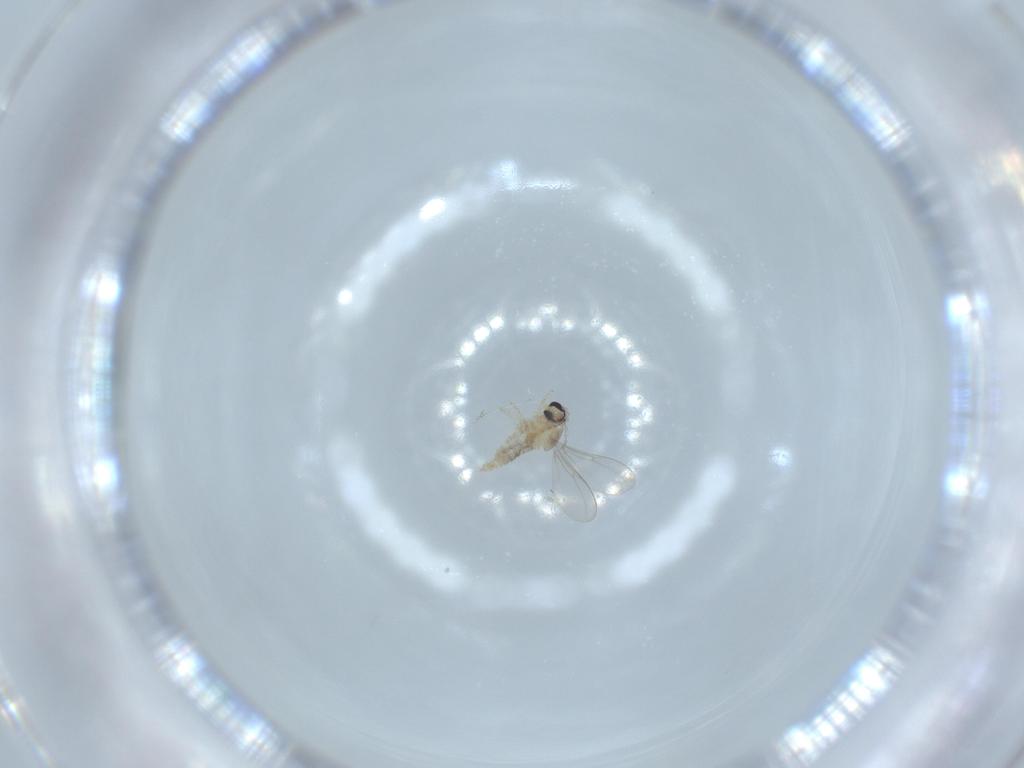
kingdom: Animalia
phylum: Arthropoda
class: Insecta
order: Diptera
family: Cecidomyiidae
